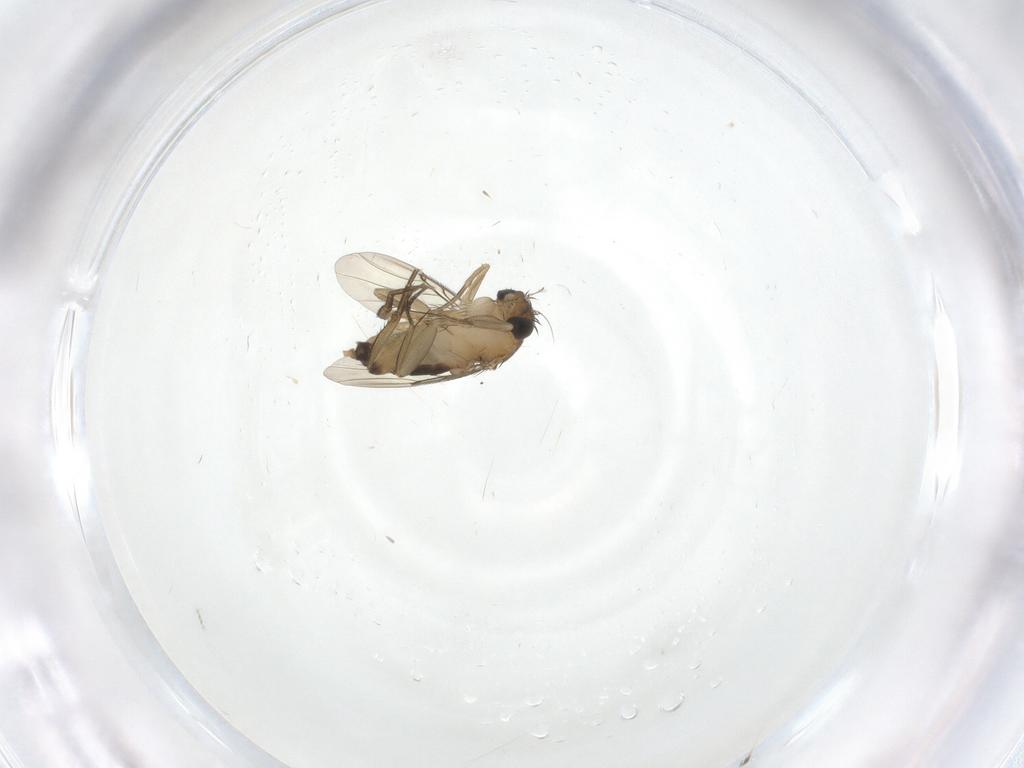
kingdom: Animalia
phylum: Arthropoda
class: Insecta
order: Diptera
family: Phoridae
